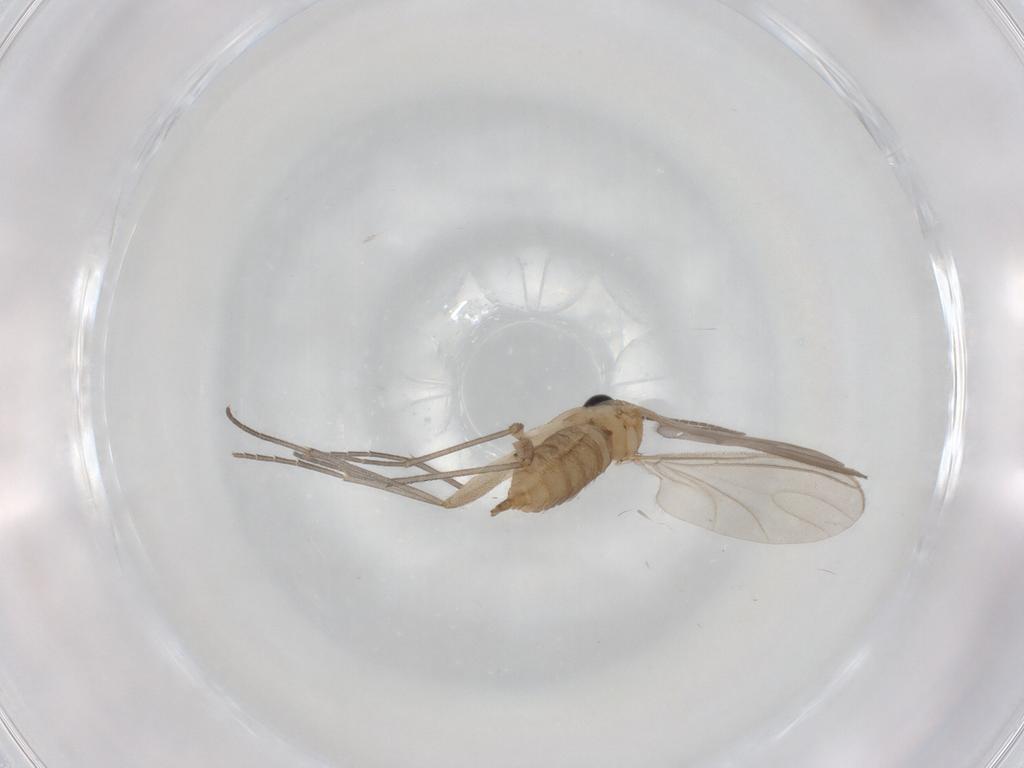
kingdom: Animalia
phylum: Arthropoda
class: Insecta
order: Diptera
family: Sciaridae
